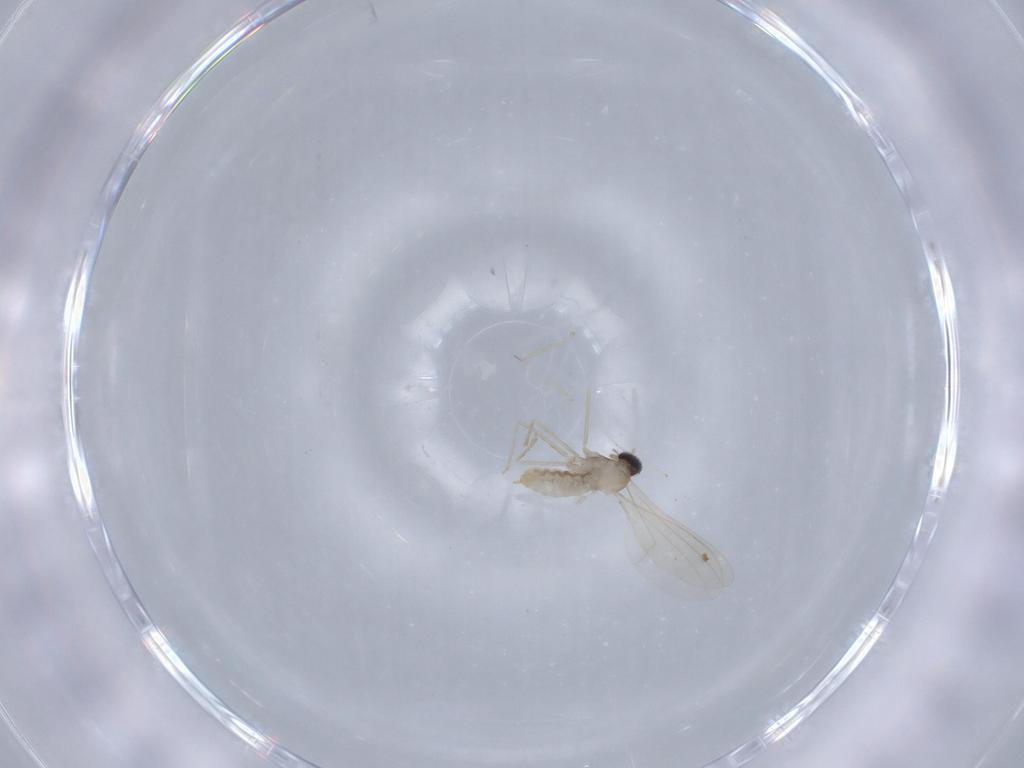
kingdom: Animalia
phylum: Arthropoda
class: Insecta
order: Diptera
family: Cecidomyiidae
